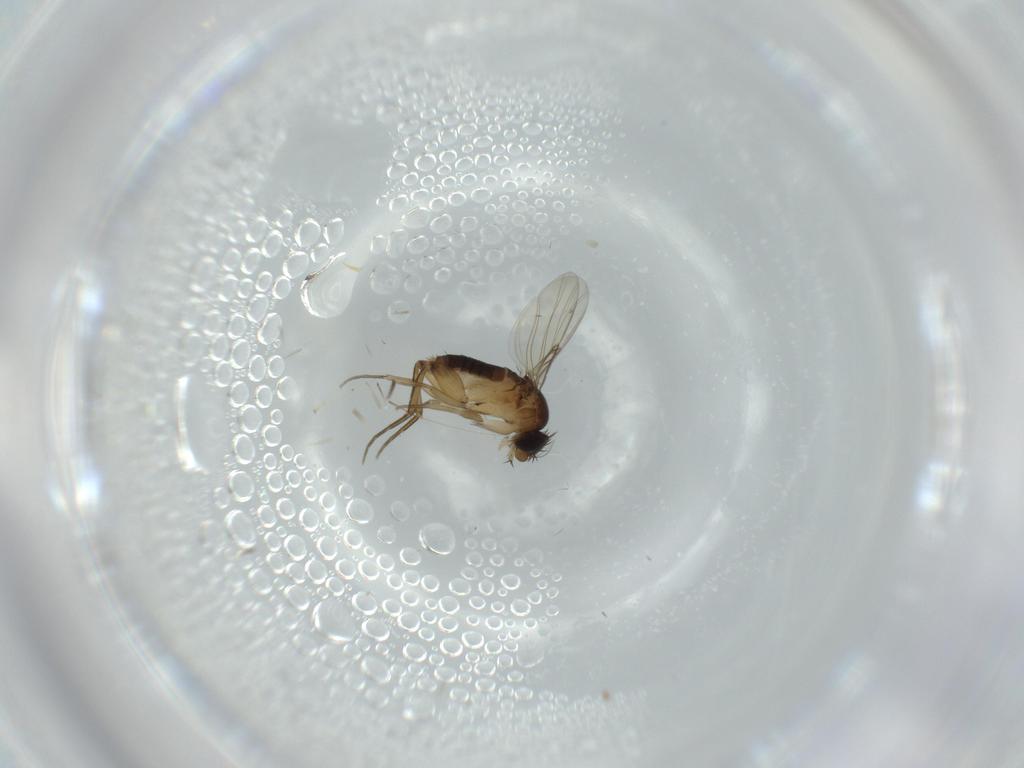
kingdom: Animalia
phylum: Arthropoda
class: Insecta
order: Diptera
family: Phoridae
